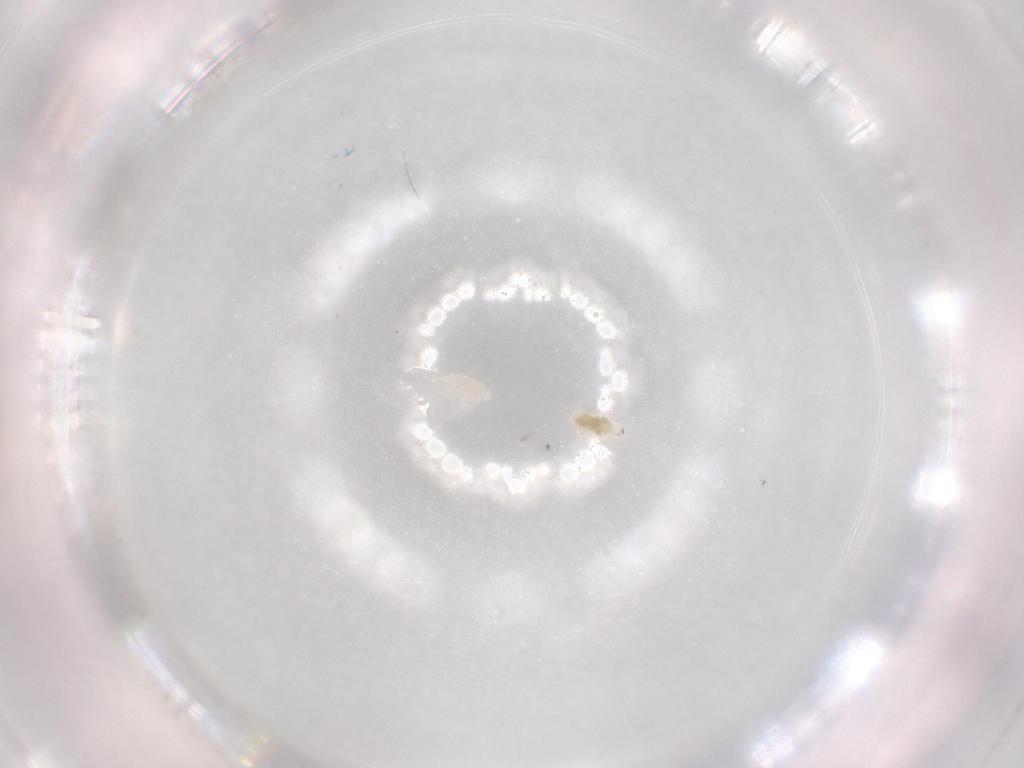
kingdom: Animalia
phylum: Arthropoda
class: Arachnida
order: Trombidiformes
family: Eupodidae
